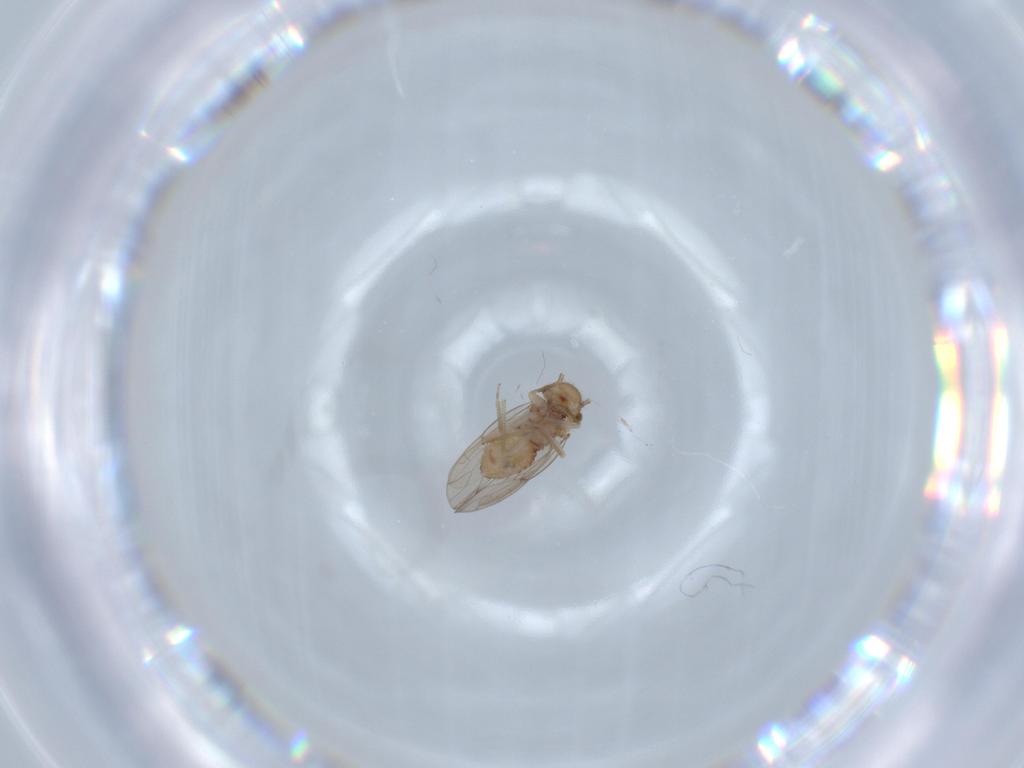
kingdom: Animalia
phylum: Arthropoda
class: Insecta
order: Psocodea
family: Ectopsocidae
